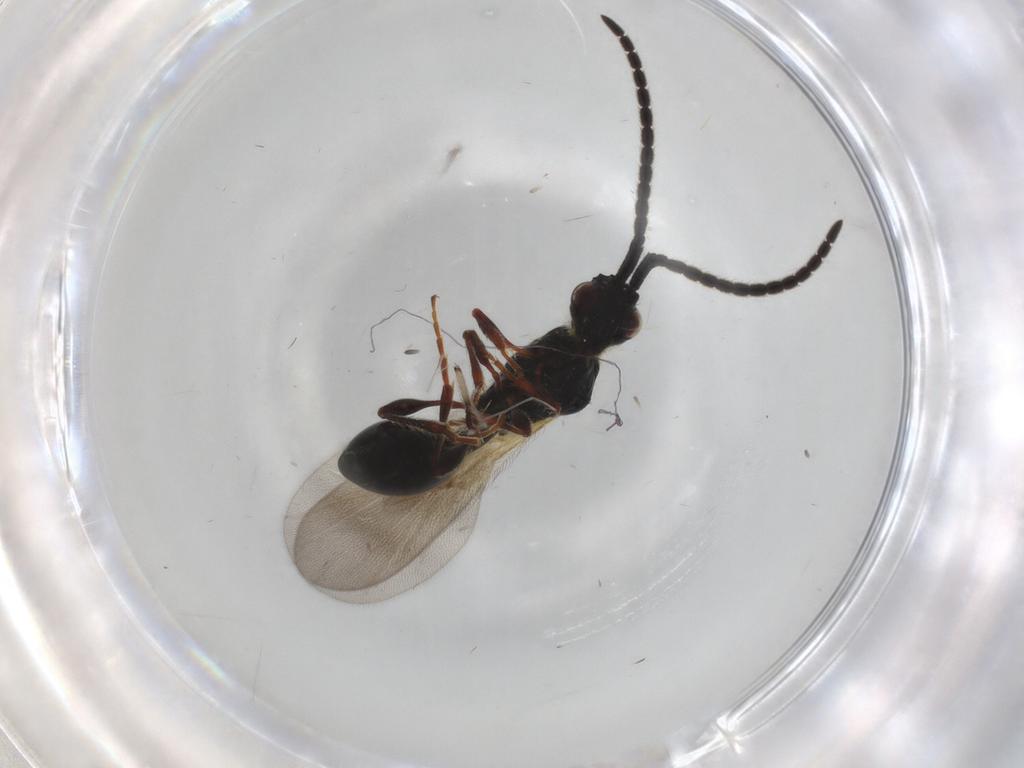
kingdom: Animalia
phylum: Arthropoda
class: Insecta
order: Hymenoptera
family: Diapriidae
